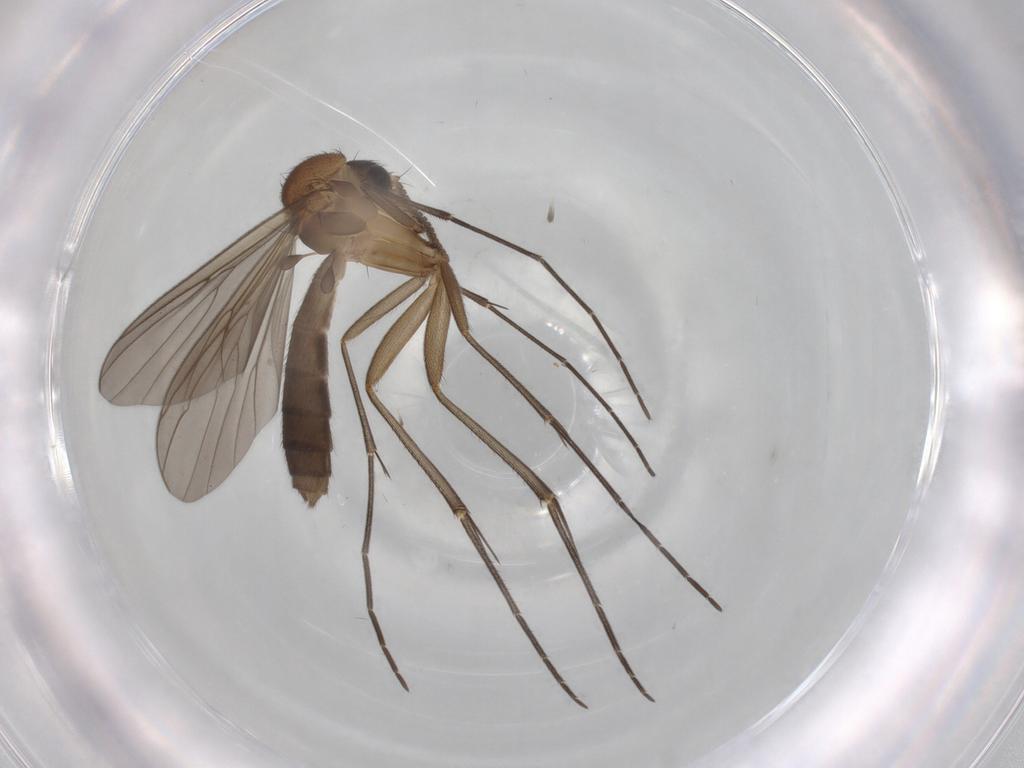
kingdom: Animalia
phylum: Arthropoda
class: Insecta
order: Diptera
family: Mycetophilidae
